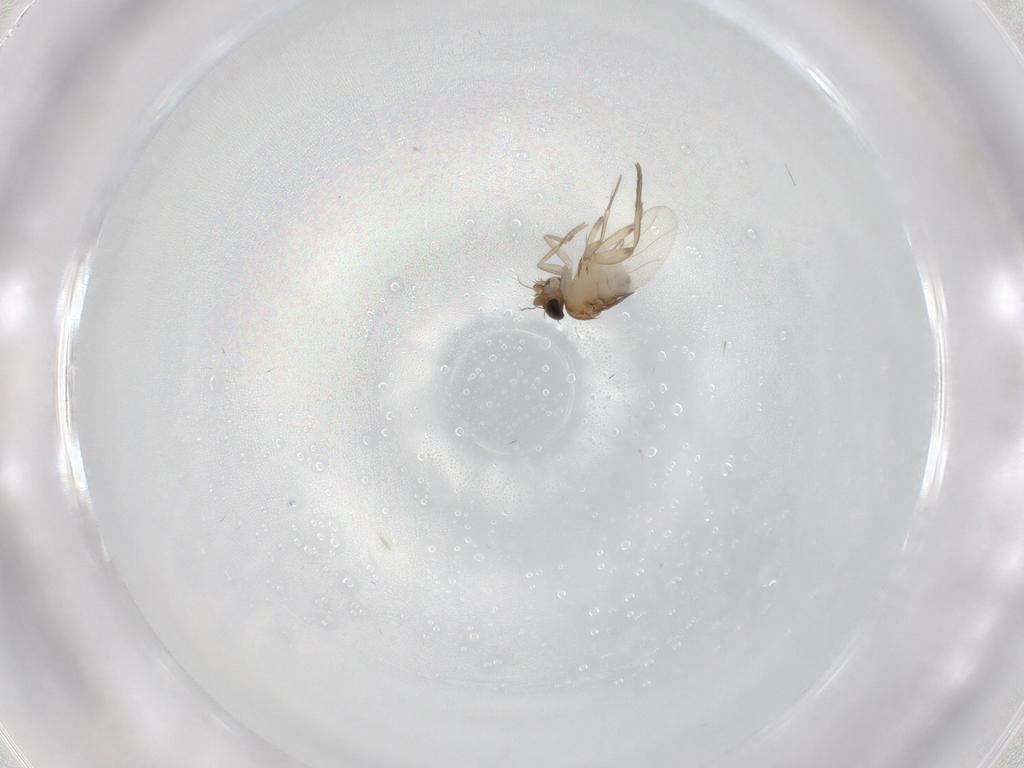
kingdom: Animalia
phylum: Arthropoda
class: Insecta
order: Diptera
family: Phoridae
